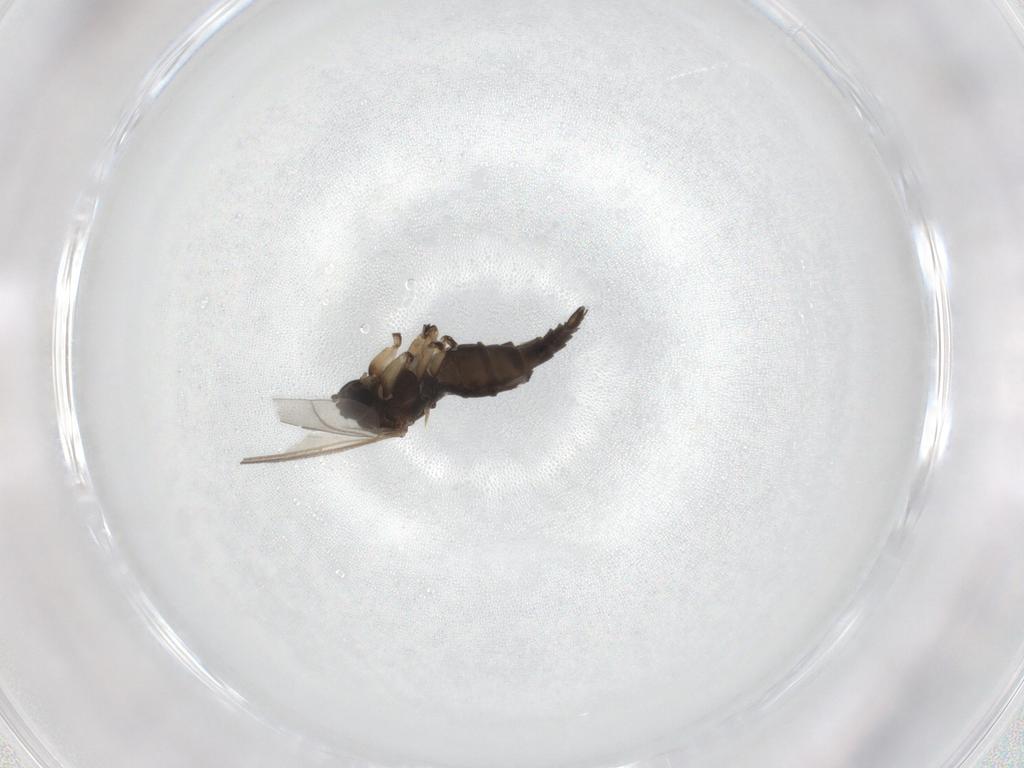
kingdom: Animalia
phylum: Arthropoda
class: Insecta
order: Diptera
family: Sciaridae
